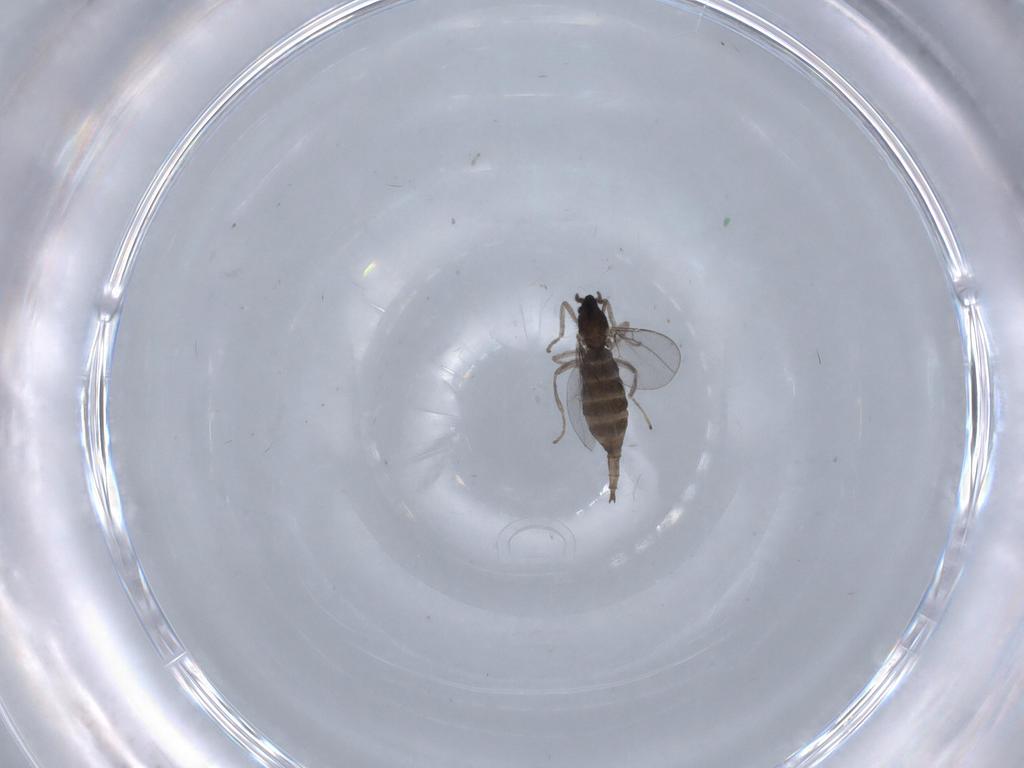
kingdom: Animalia
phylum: Arthropoda
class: Insecta
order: Diptera
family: Cecidomyiidae
